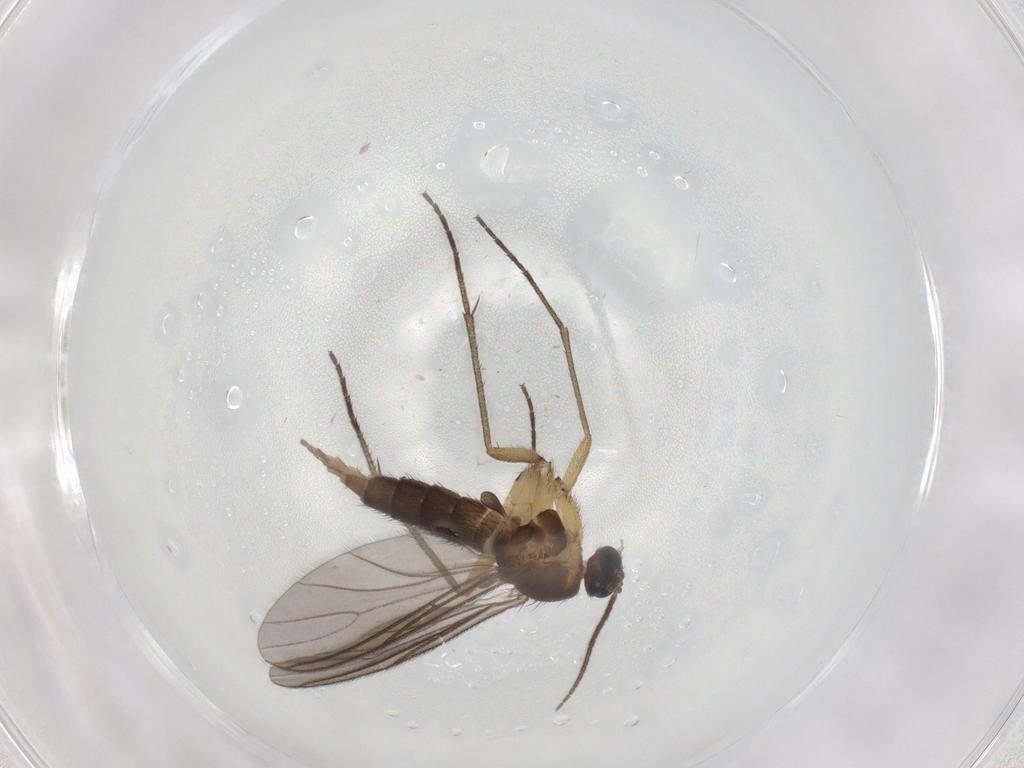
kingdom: Animalia
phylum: Arthropoda
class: Insecta
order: Diptera
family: Sciaridae
